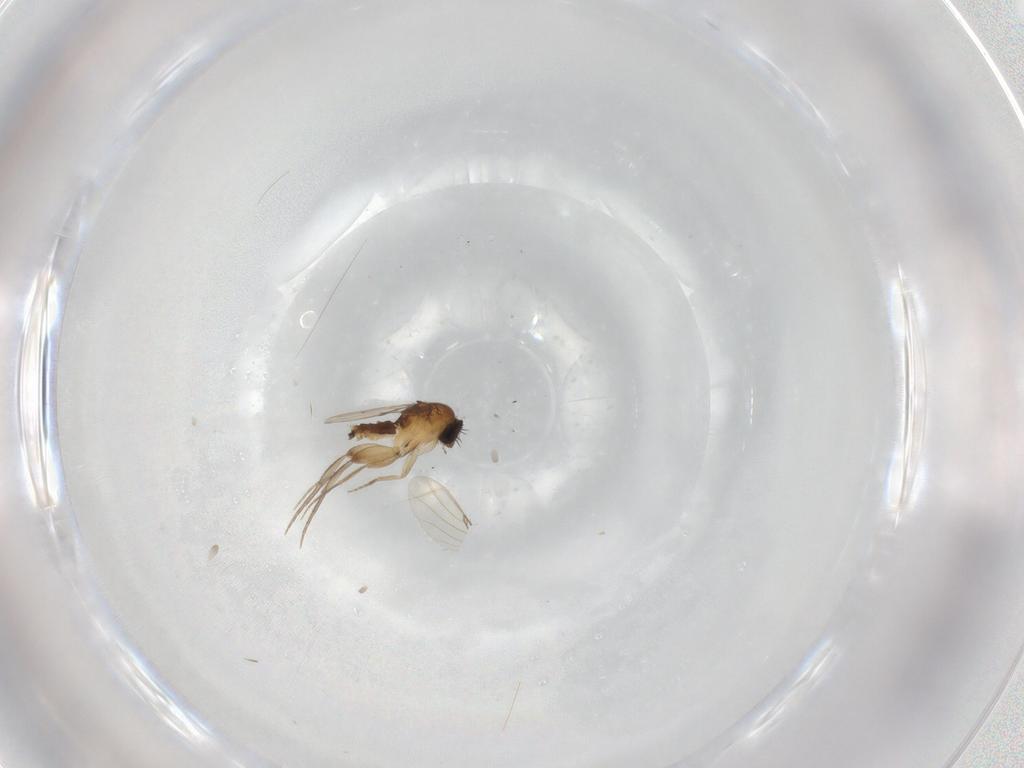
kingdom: Animalia
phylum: Arthropoda
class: Insecta
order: Diptera
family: Phoridae
